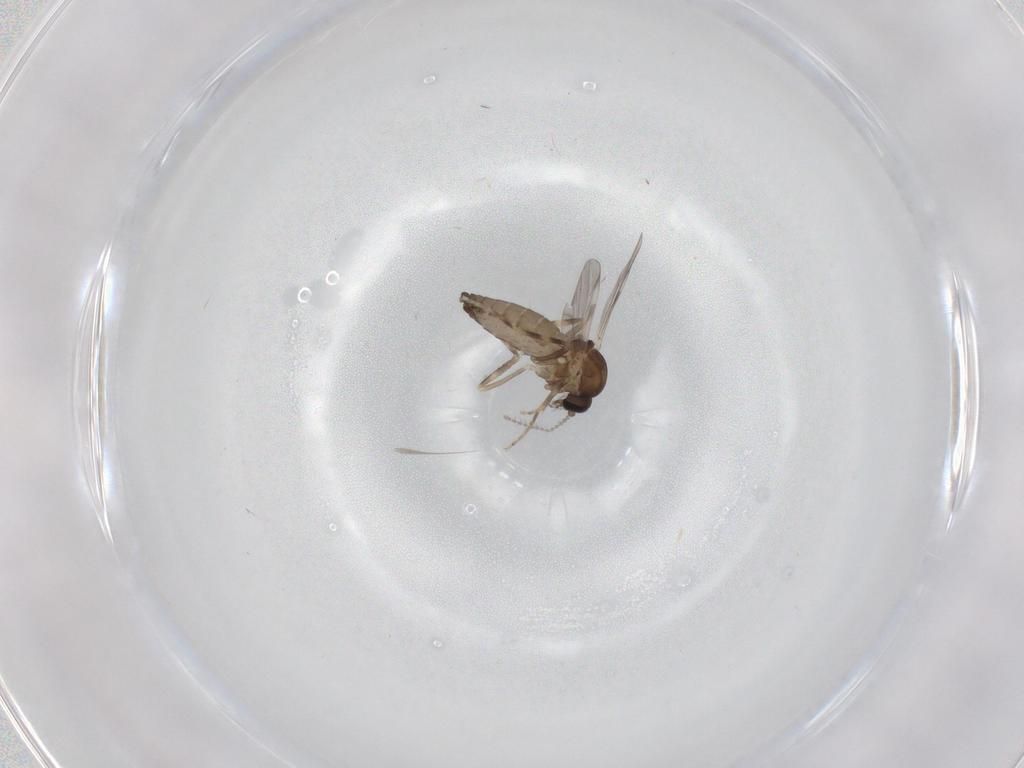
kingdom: Animalia
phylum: Arthropoda
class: Insecta
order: Diptera
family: Ceratopogonidae
